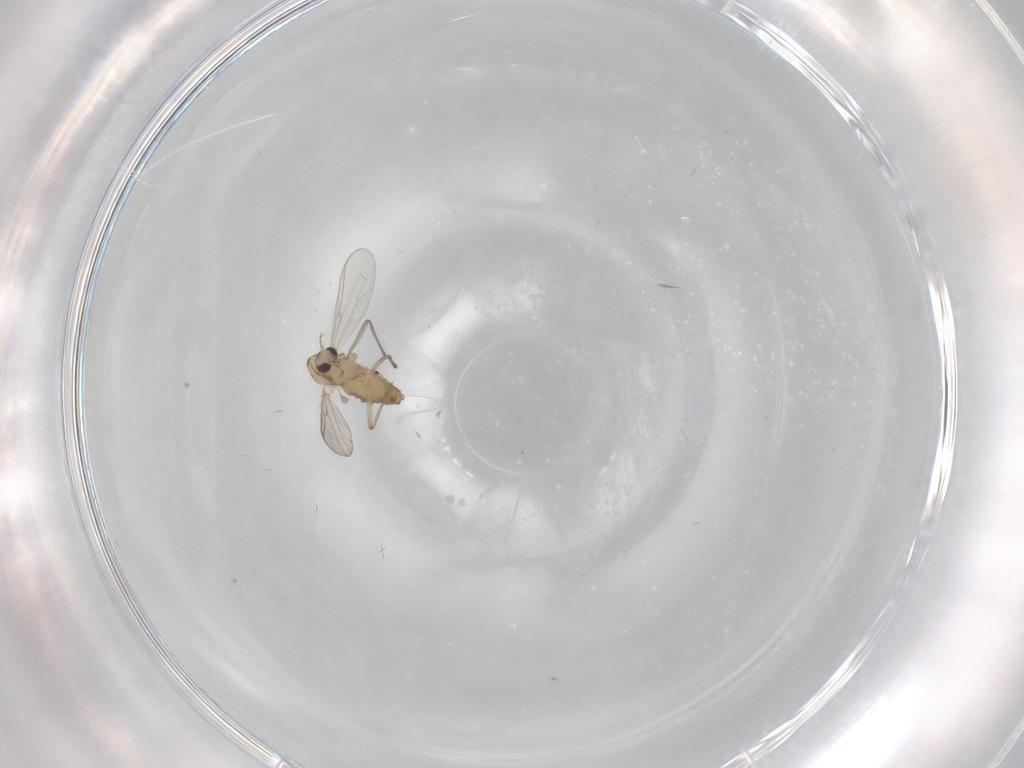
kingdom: Animalia
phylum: Arthropoda
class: Insecta
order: Diptera
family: Chironomidae
